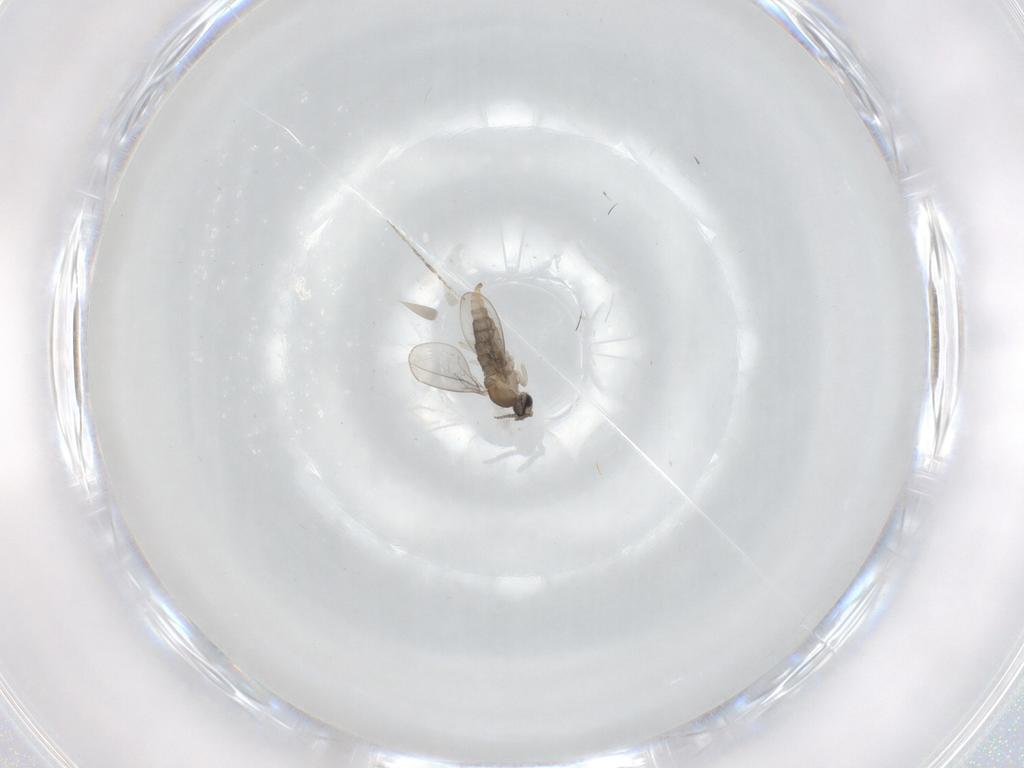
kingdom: Animalia
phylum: Arthropoda
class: Insecta
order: Diptera
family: Cecidomyiidae
